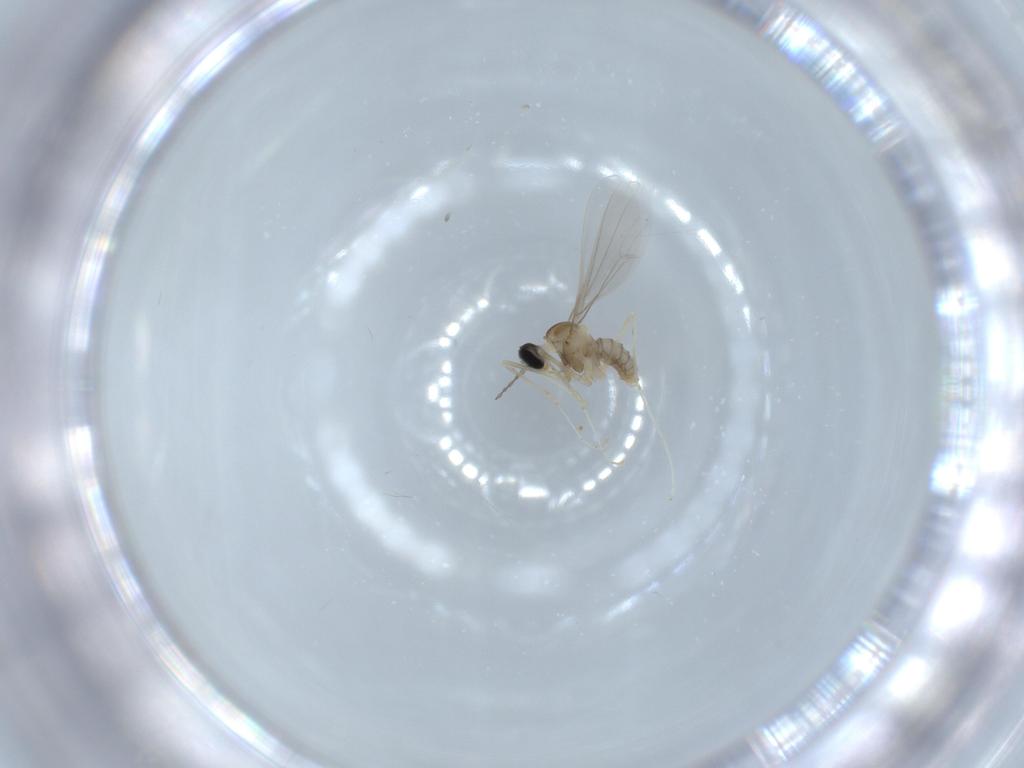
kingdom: Animalia
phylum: Arthropoda
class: Insecta
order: Diptera
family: Cecidomyiidae
